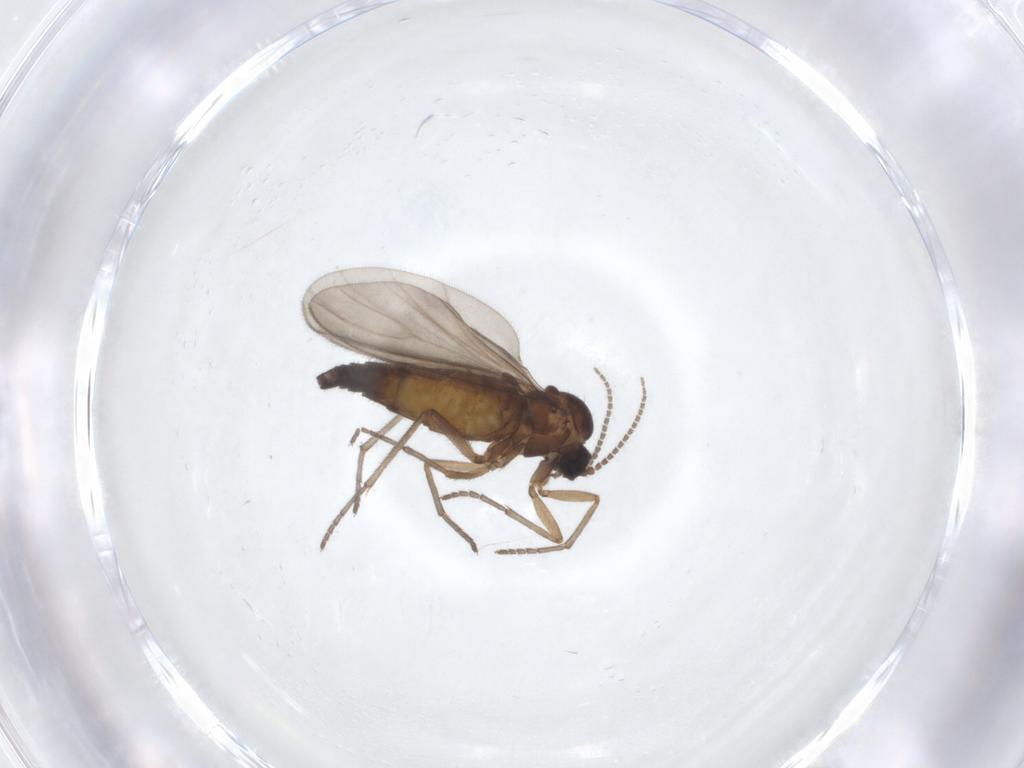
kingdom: Animalia
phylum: Arthropoda
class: Insecta
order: Diptera
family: Sciaridae
